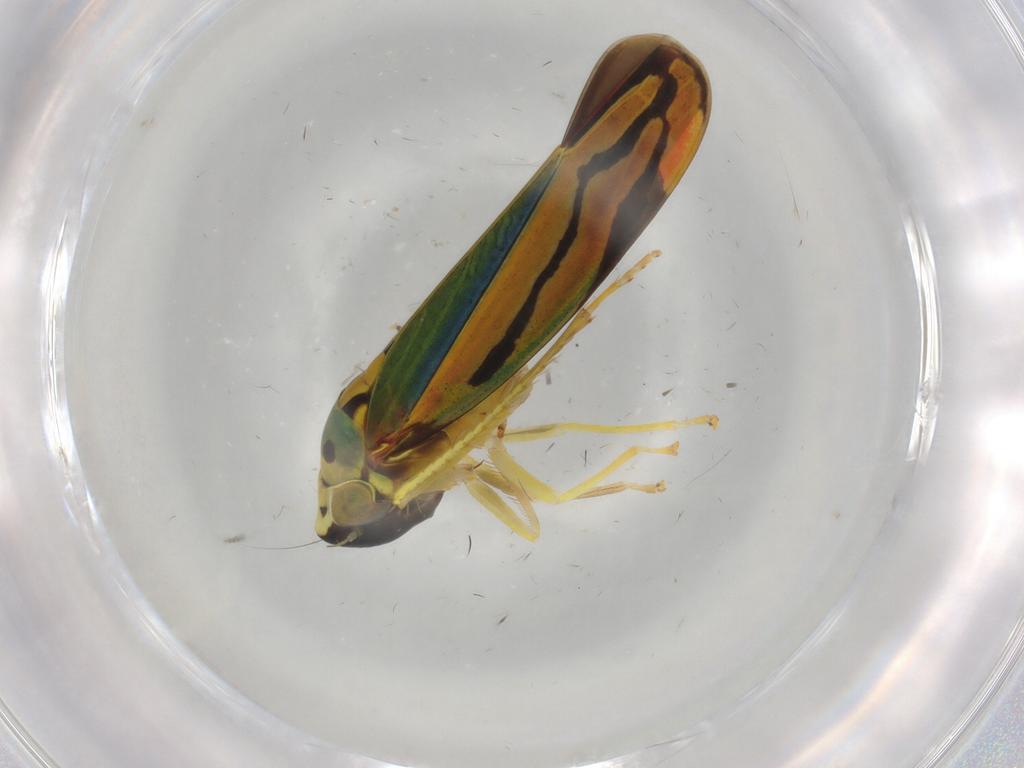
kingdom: Animalia
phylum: Arthropoda
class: Insecta
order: Hemiptera
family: Cicadellidae
